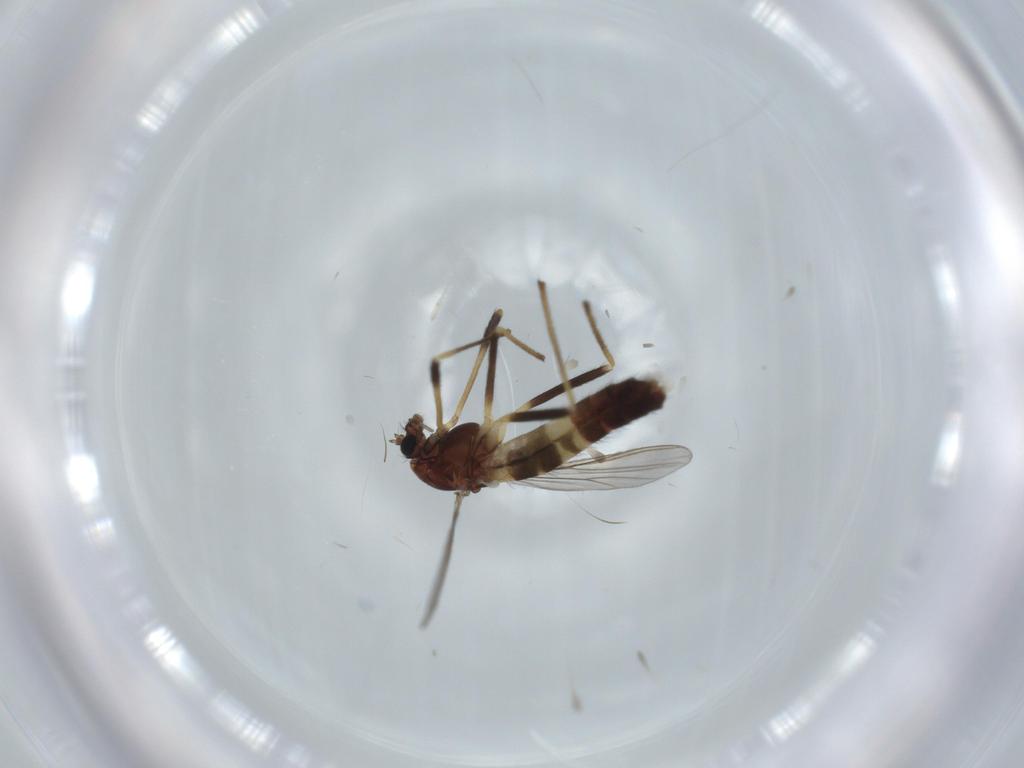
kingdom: Animalia
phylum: Arthropoda
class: Insecta
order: Diptera
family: Chironomidae
